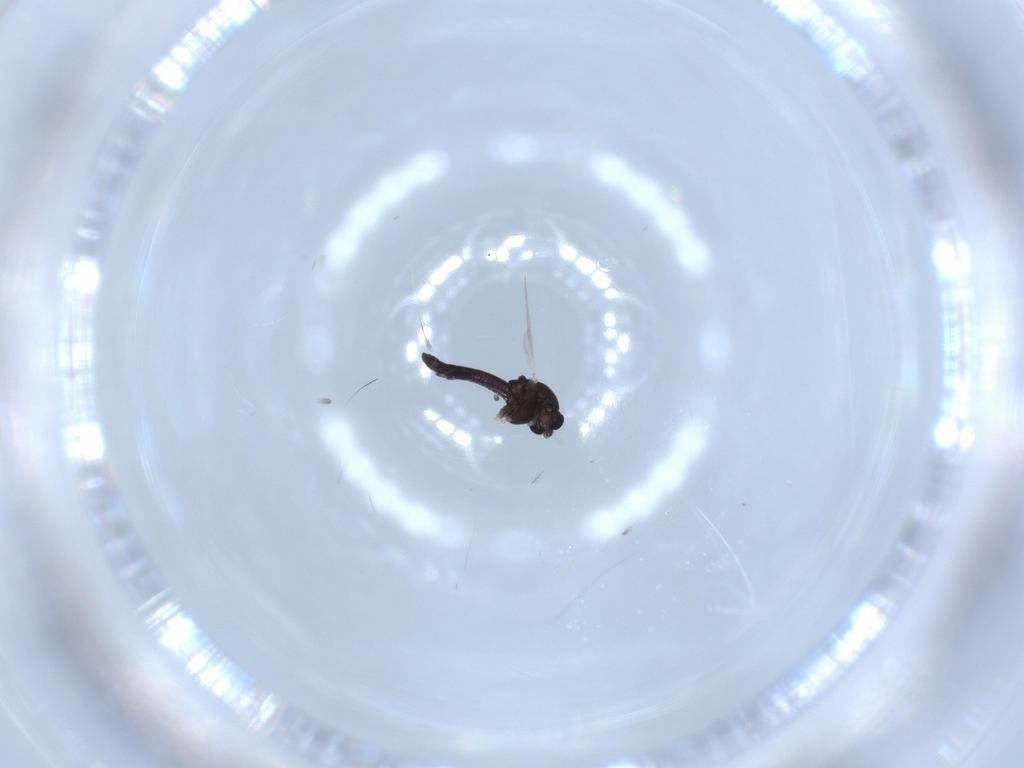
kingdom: Animalia
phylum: Arthropoda
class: Insecta
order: Diptera
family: Chironomidae
